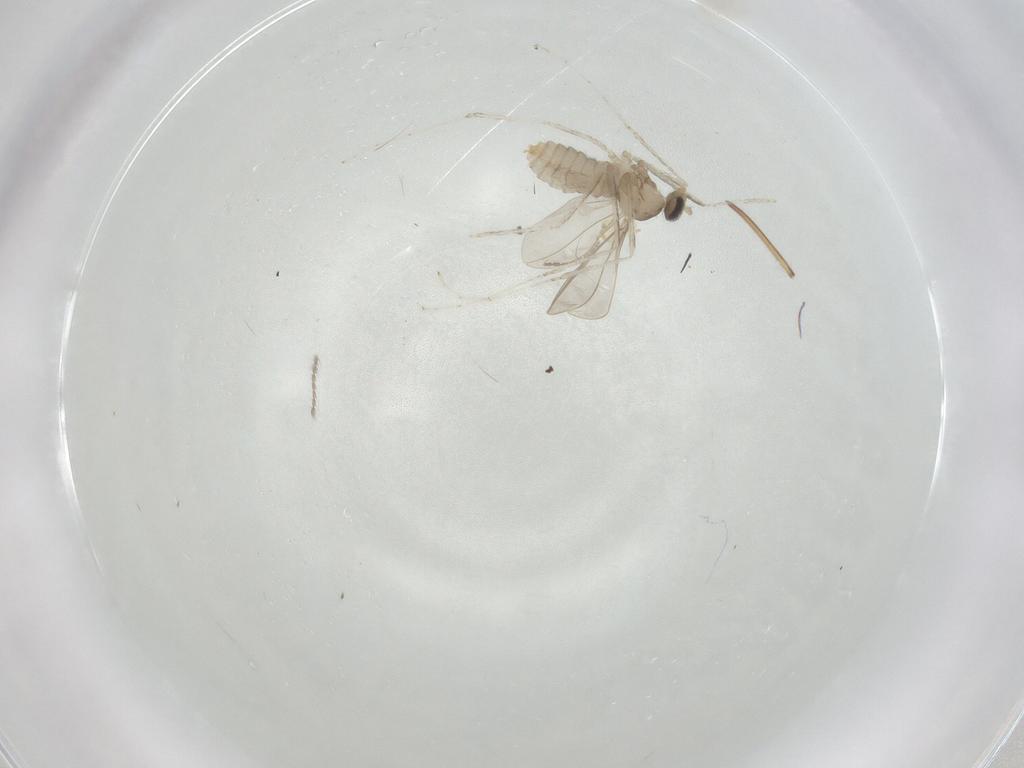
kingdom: Animalia
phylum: Arthropoda
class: Insecta
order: Diptera
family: Cecidomyiidae
